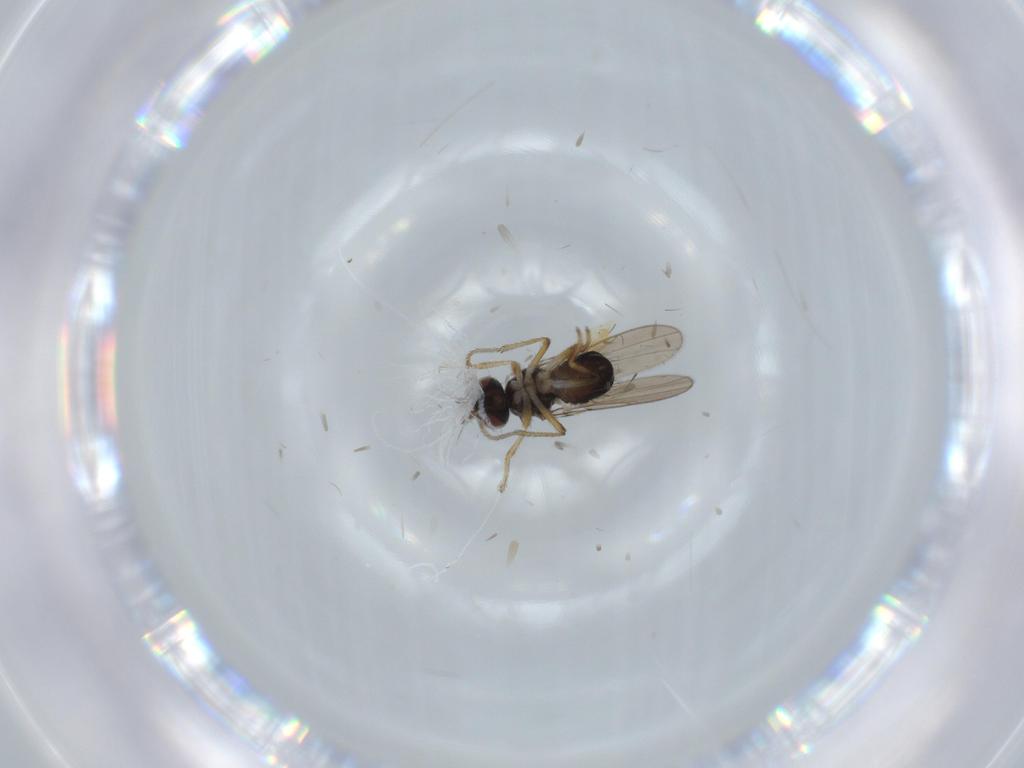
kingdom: Animalia
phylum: Arthropoda
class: Insecta
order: Diptera
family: Ephydridae
